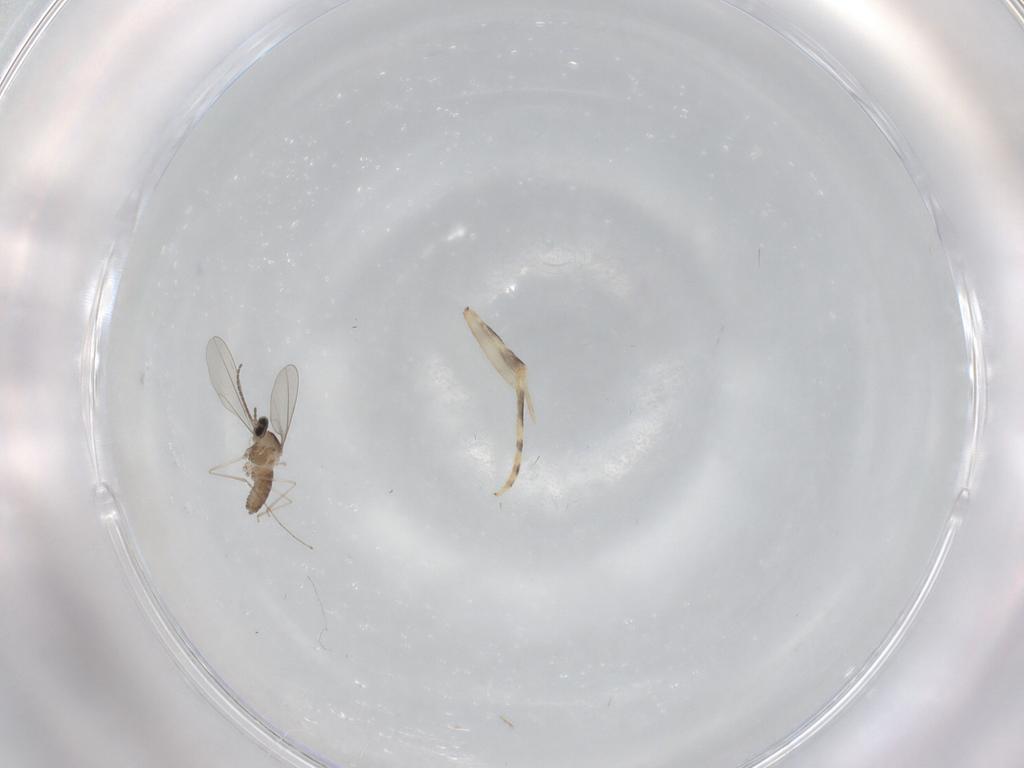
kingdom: Animalia
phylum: Arthropoda
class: Insecta
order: Diptera
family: Cecidomyiidae
